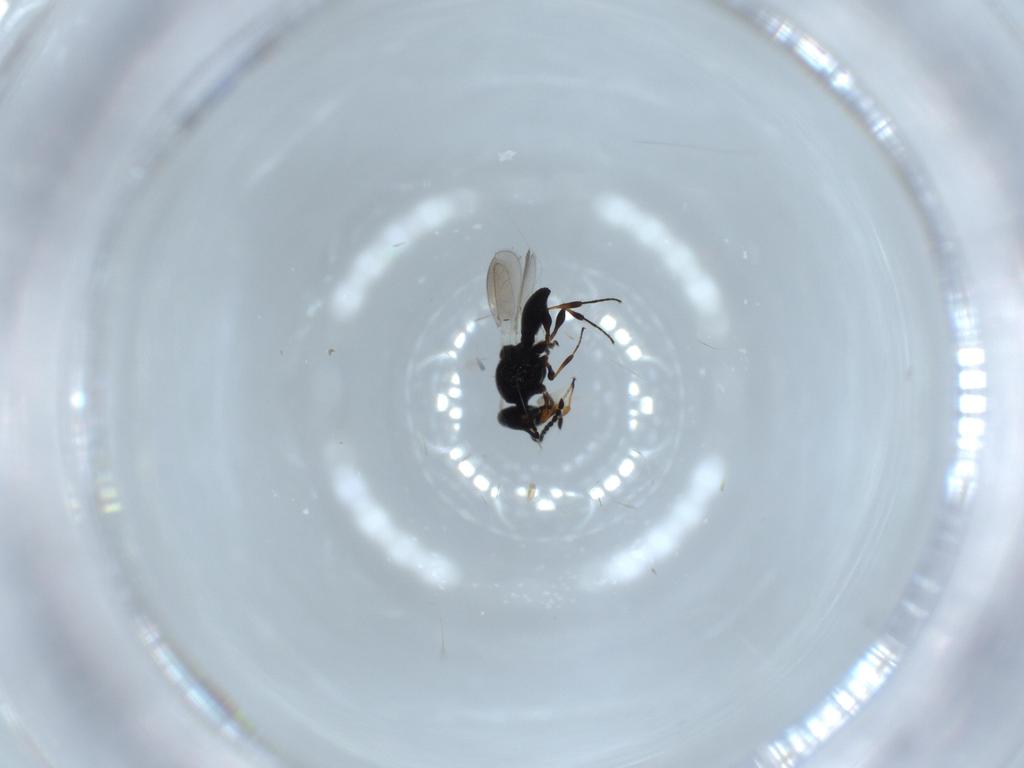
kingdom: Animalia
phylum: Arthropoda
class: Insecta
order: Hymenoptera
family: Platygastridae
